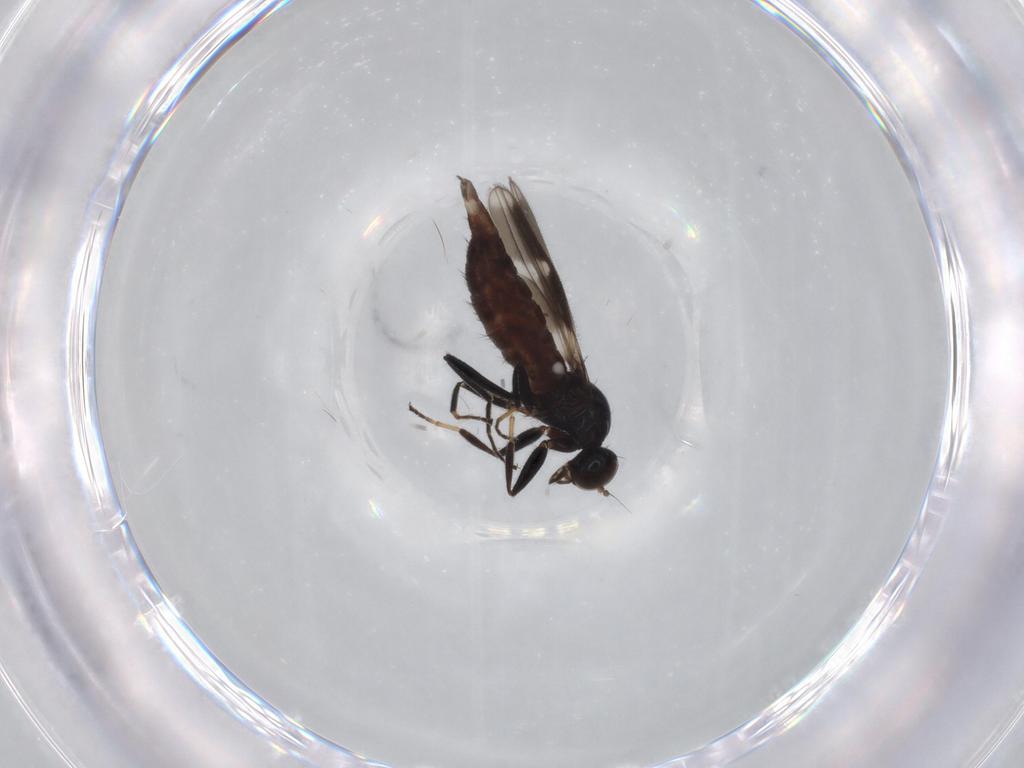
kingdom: Animalia
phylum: Arthropoda
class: Insecta
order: Diptera
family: Hybotidae
